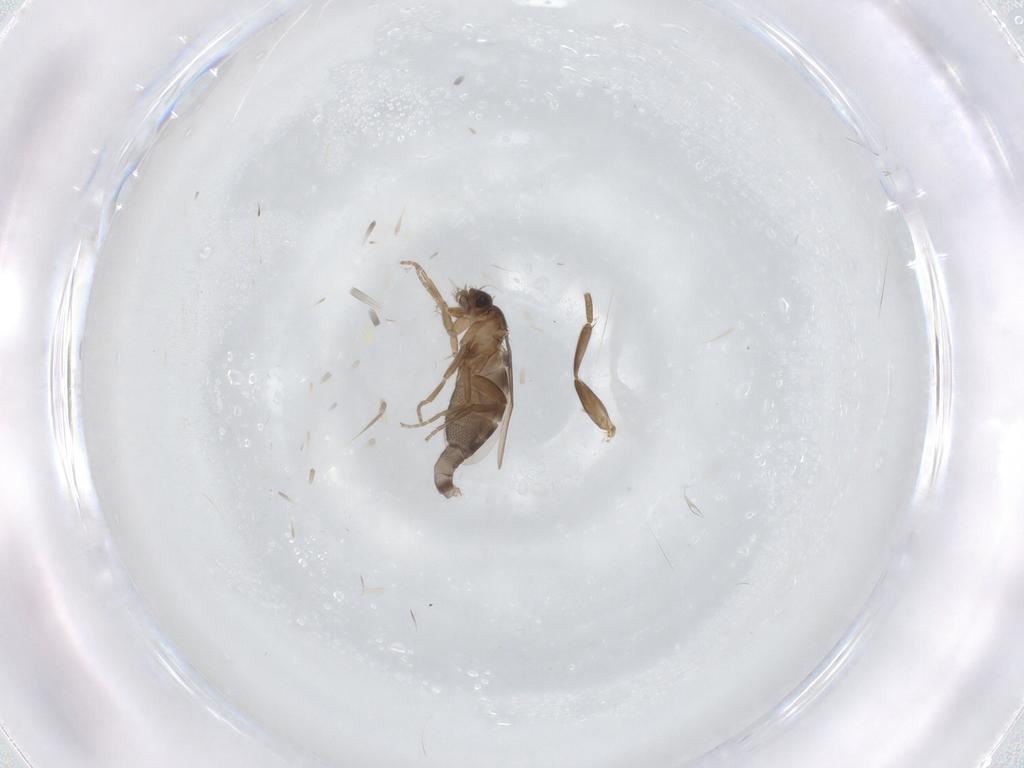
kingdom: Animalia
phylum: Arthropoda
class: Insecta
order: Diptera
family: Phoridae
